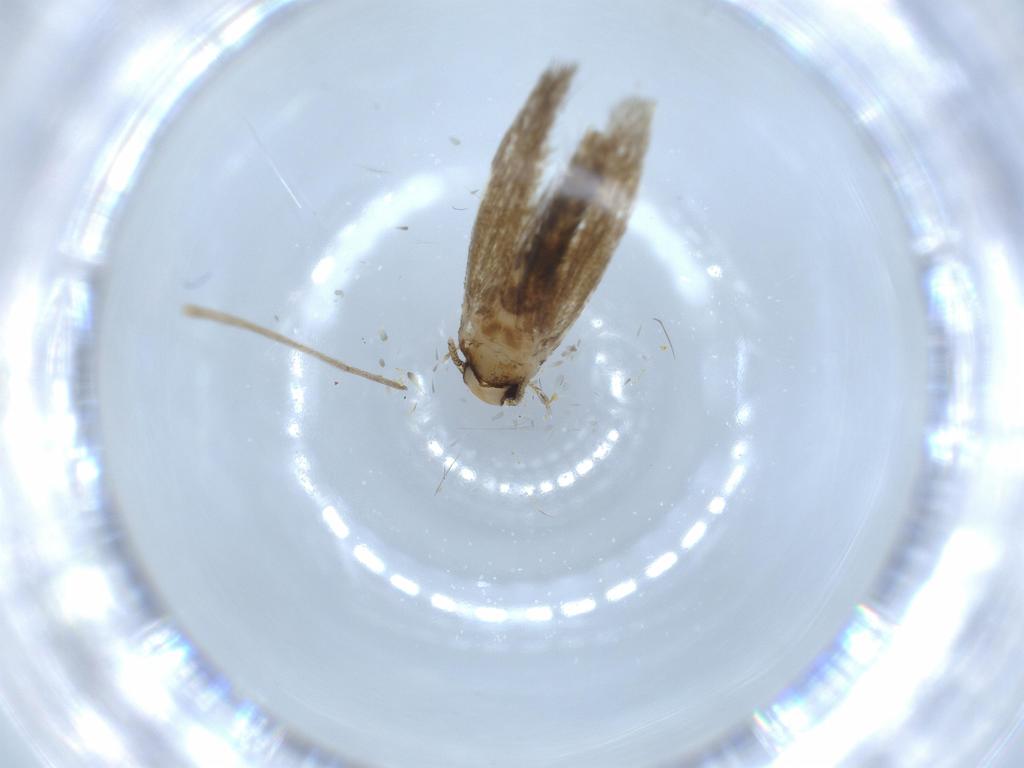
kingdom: Animalia
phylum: Arthropoda
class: Insecta
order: Lepidoptera
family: Tineidae
